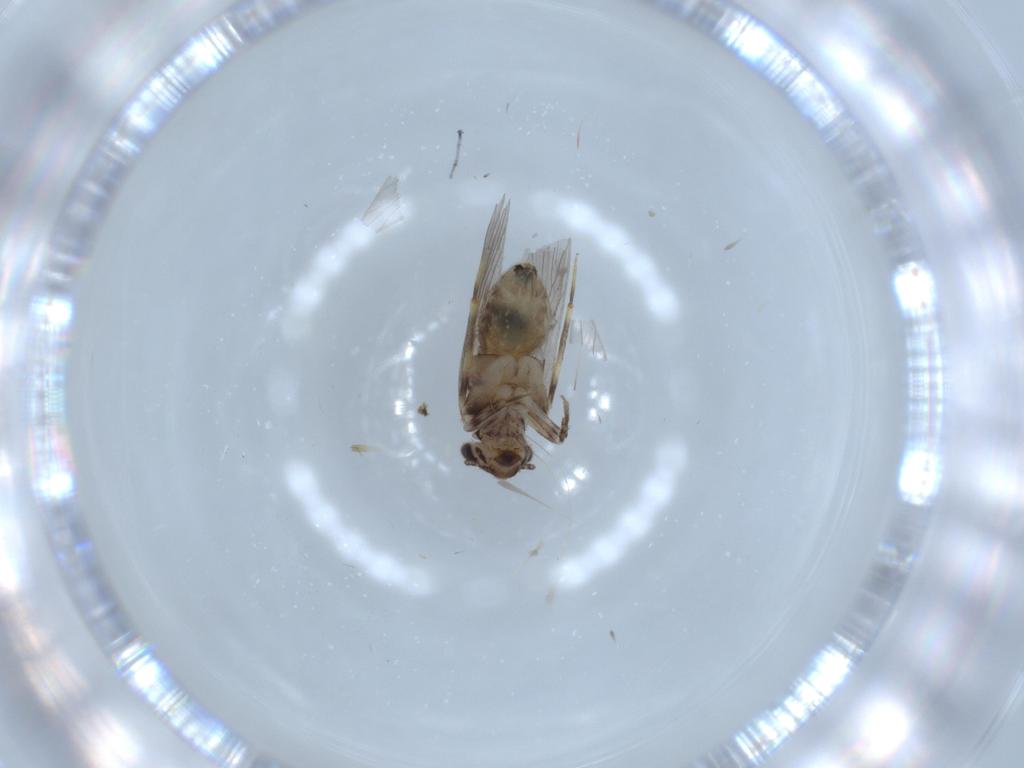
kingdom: Animalia
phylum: Arthropoda
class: Insecta
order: Psocodea
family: Lepidopsocidae
